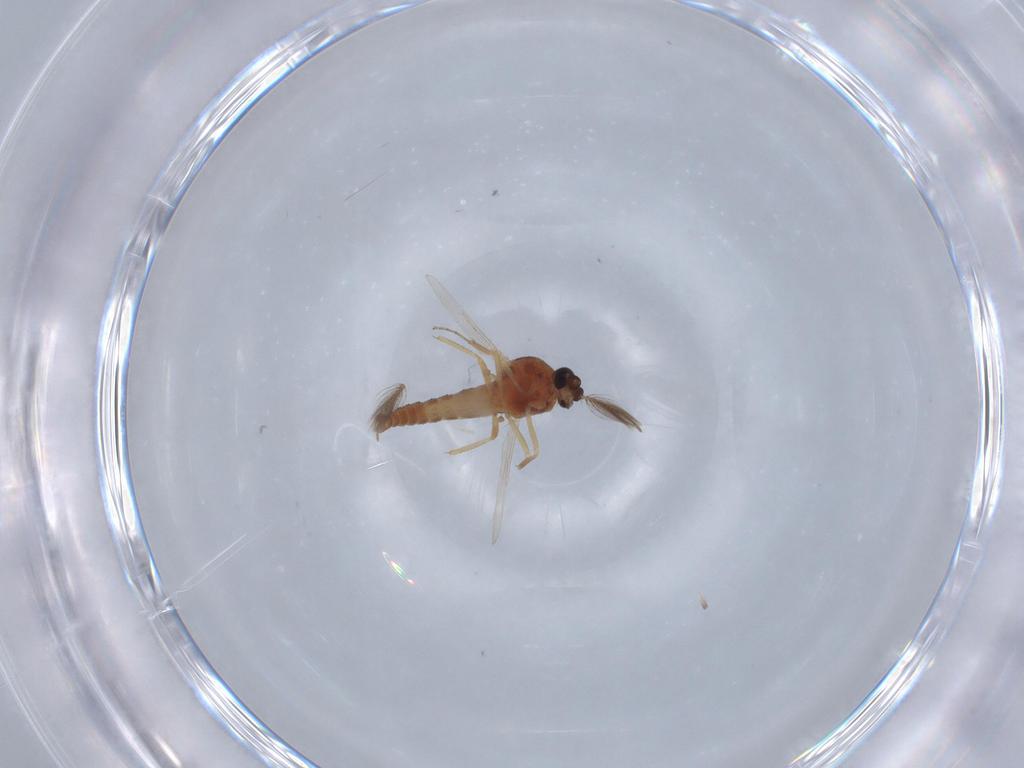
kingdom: Animalia
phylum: Arthropoda
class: Insecta
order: Diptera
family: Ceratopogonidae
